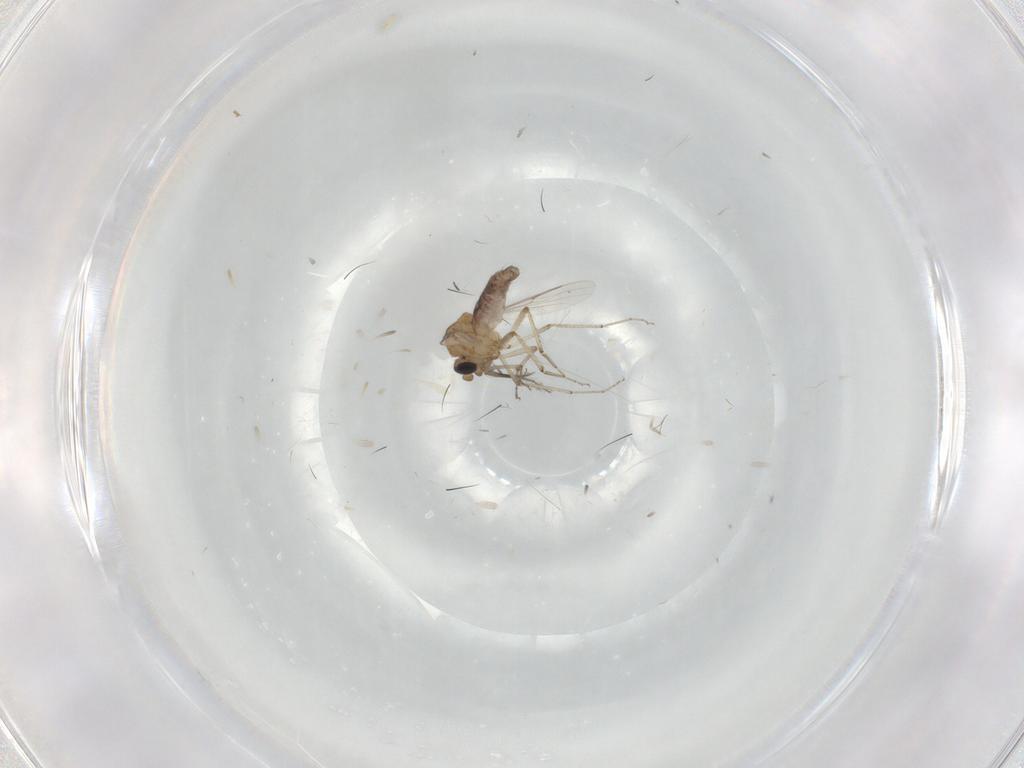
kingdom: Animalia
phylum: Arthropoda
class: Insecta
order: Diptera
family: Ceratopogonidae
